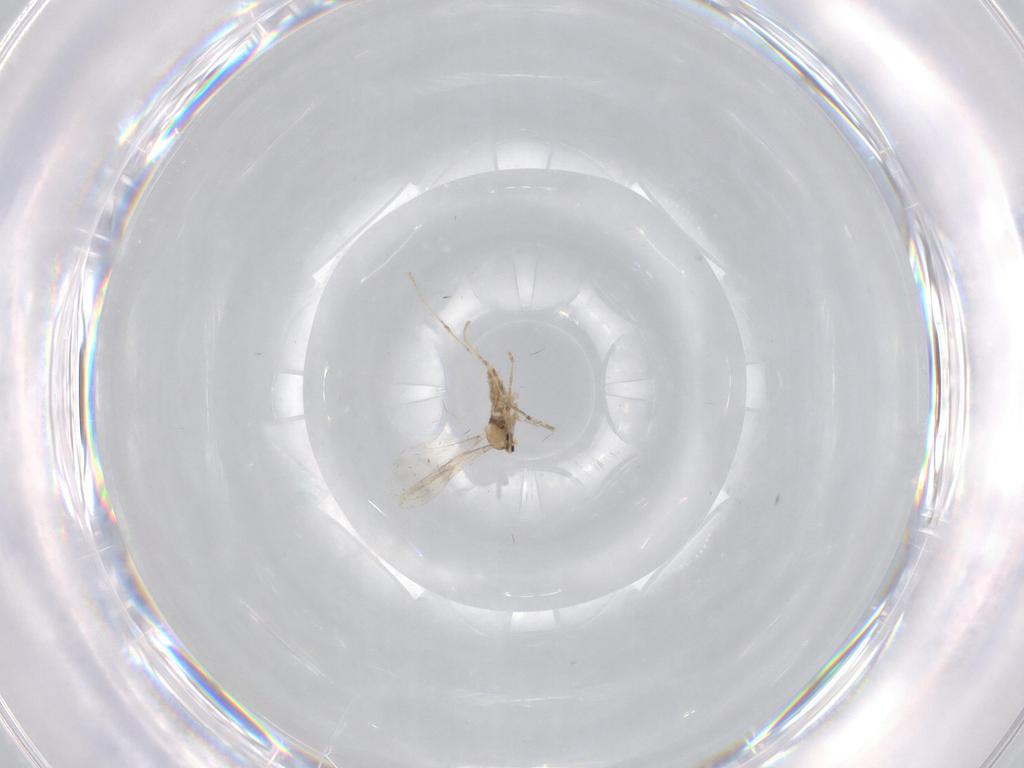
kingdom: Animalia
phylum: Arthropoda
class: Insecta
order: Diptera
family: Cecidomyiidae
